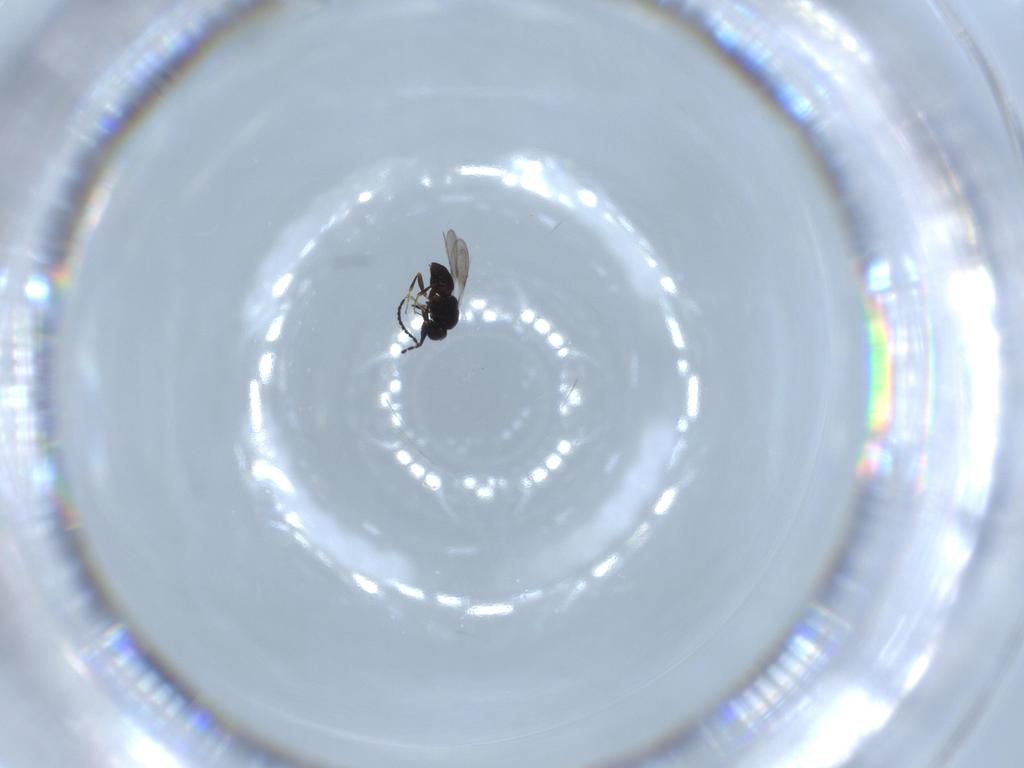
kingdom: Animalia
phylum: Arthropoda
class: Insecta
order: Hymenoptera
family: Pteromalidae
